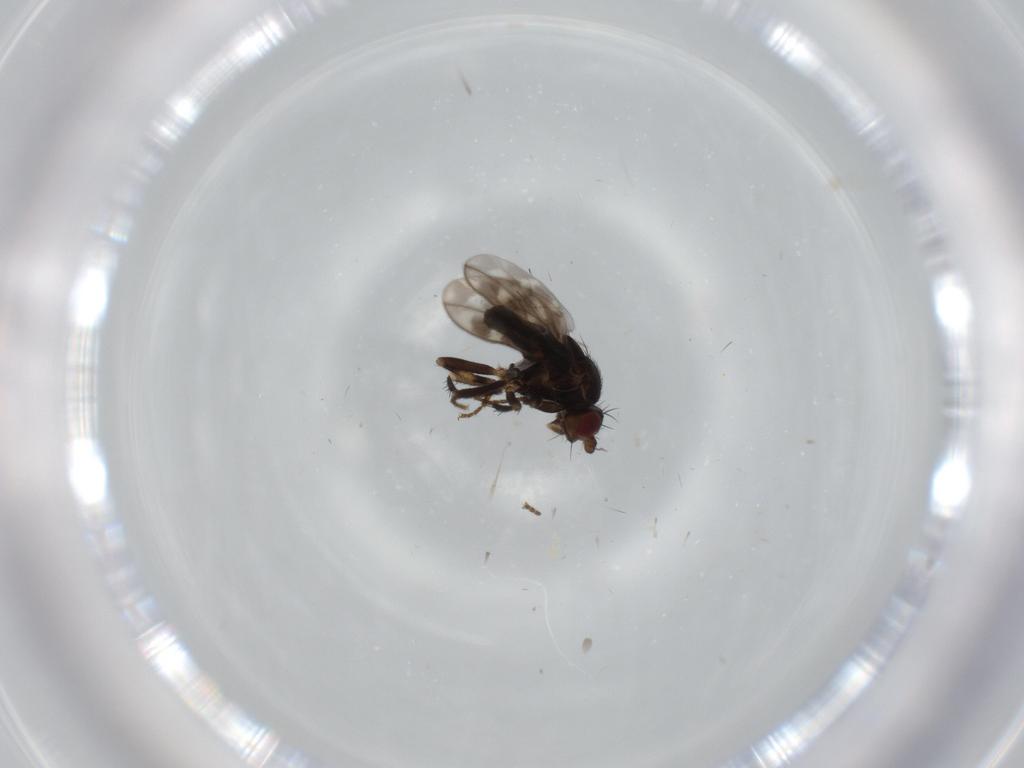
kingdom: Animalia
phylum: Arthropoda
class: Insecta
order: Diptera
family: Sphaeroceridae
